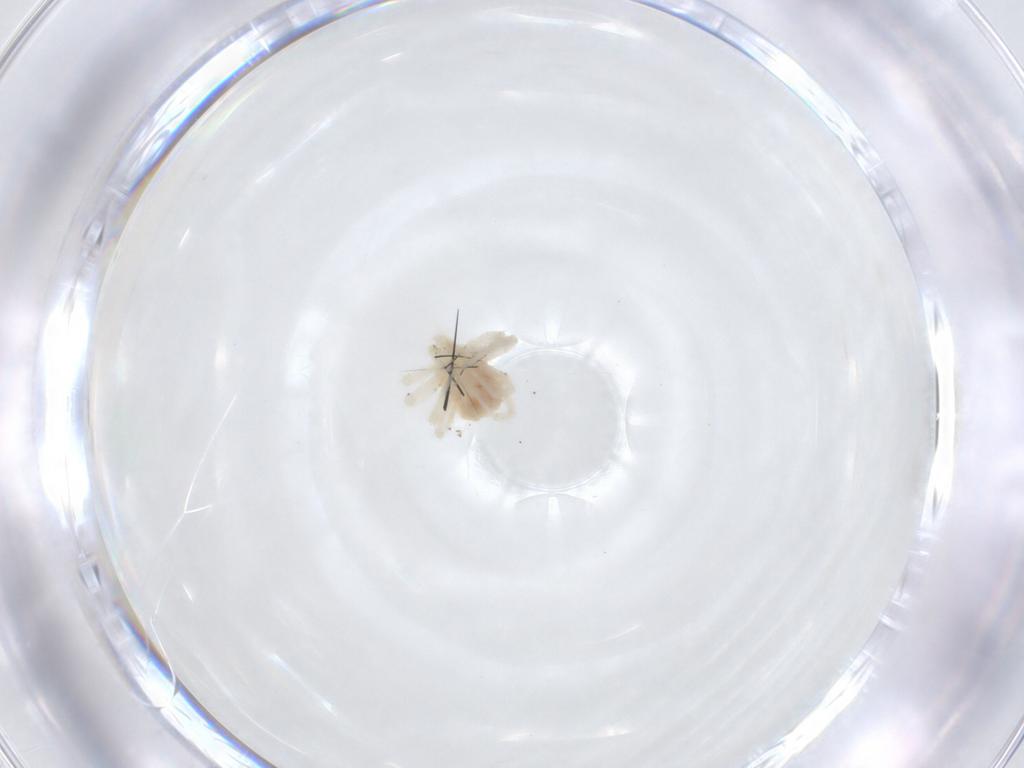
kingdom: Animalia
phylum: Arthropoda
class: Arachnida
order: Trombidiformes
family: Anystidae
